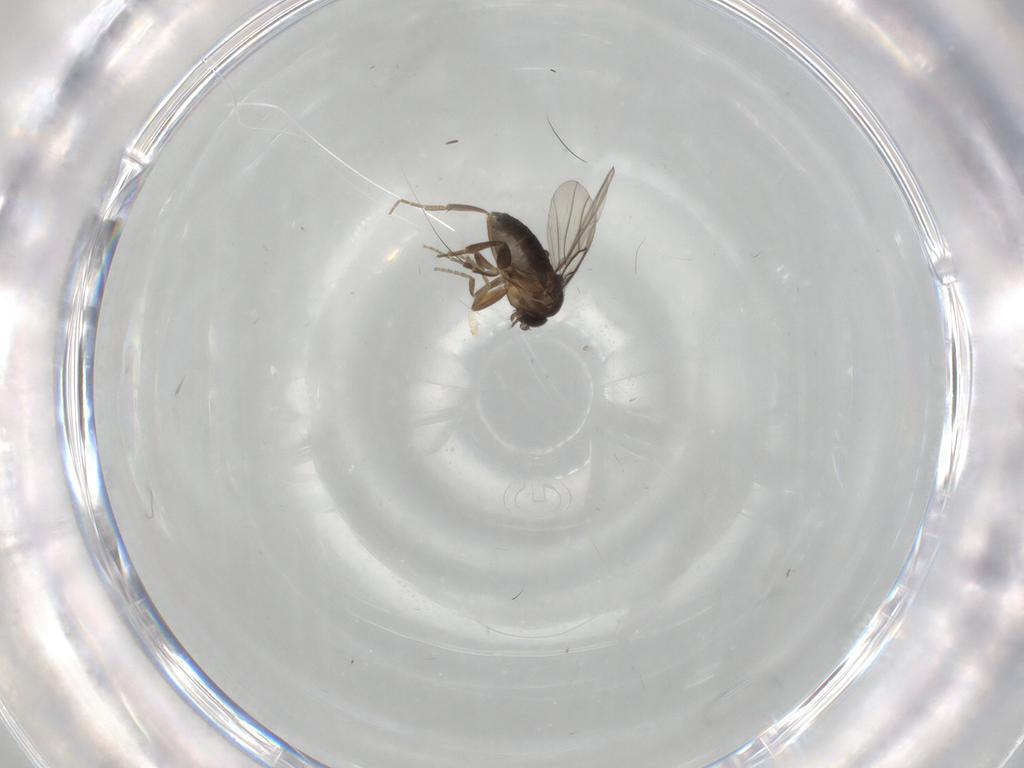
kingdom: Animalia
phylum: Arthropoda
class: Insecta
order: Diptera
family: Phoridae
